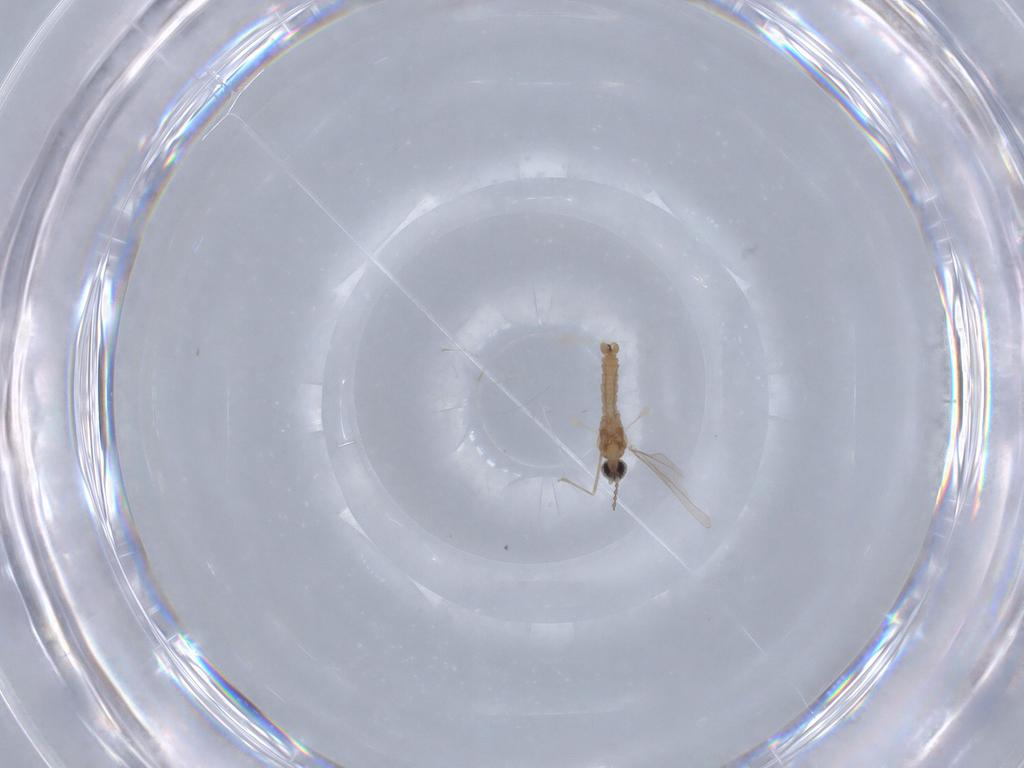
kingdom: Animalia
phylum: Arthropoda
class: Insecta
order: Diptera
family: Cecidomyiidae
